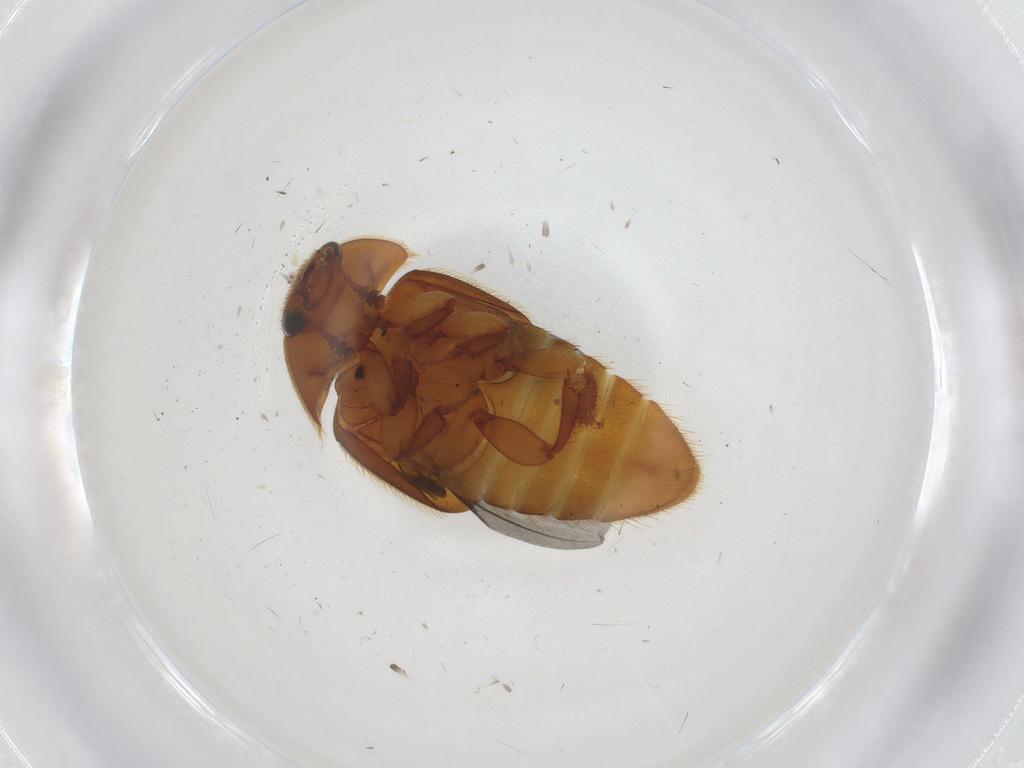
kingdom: Animalia
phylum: Arthropoda
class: Insecta
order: Coleoptera
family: Nitidulidae
